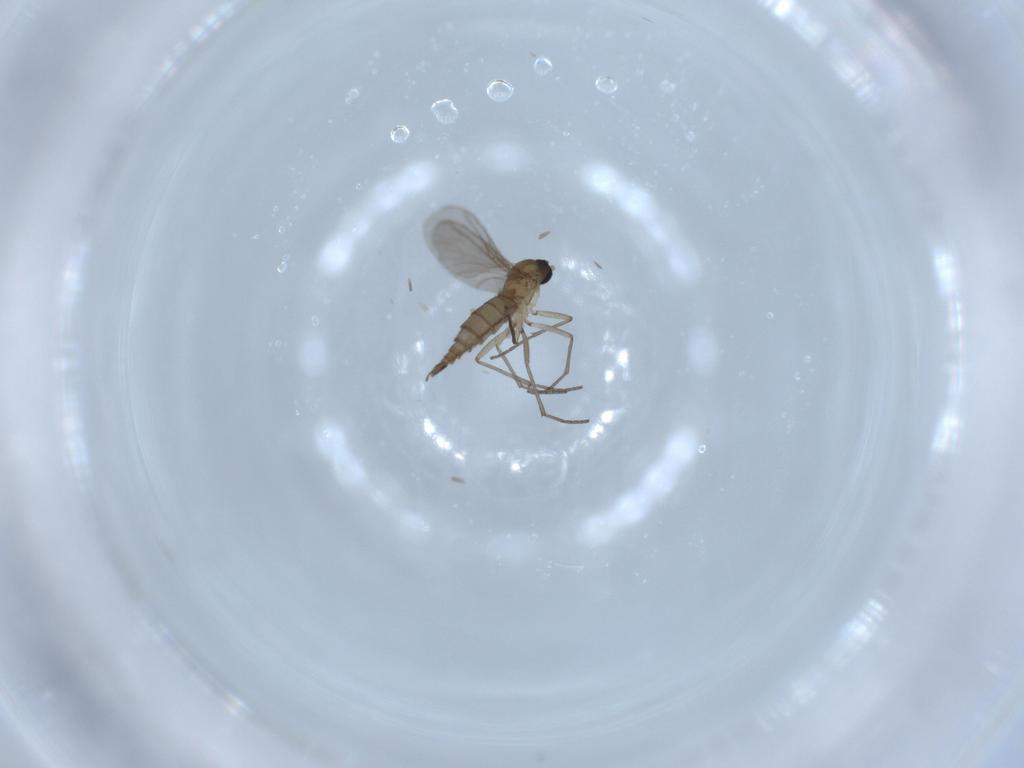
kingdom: Animalia
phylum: Arthropoda
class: Insecta
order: Diptera
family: Sciaridae
